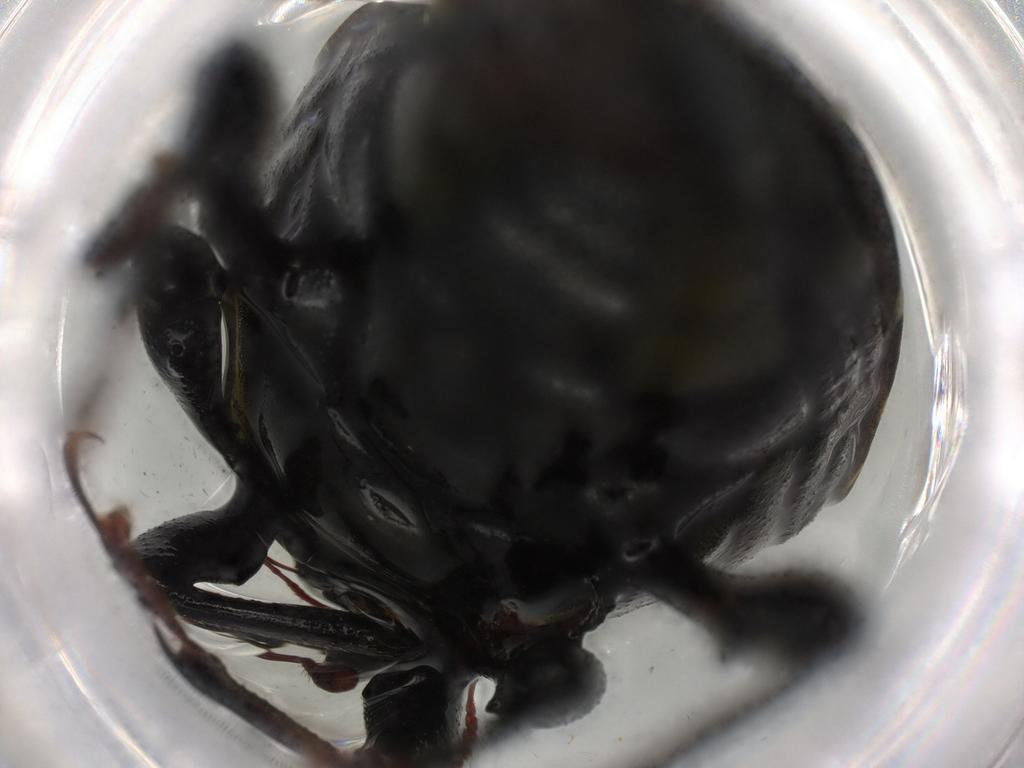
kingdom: Animalia
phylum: Arthropoda
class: Insecta
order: Coleoptera
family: Curculionidae
